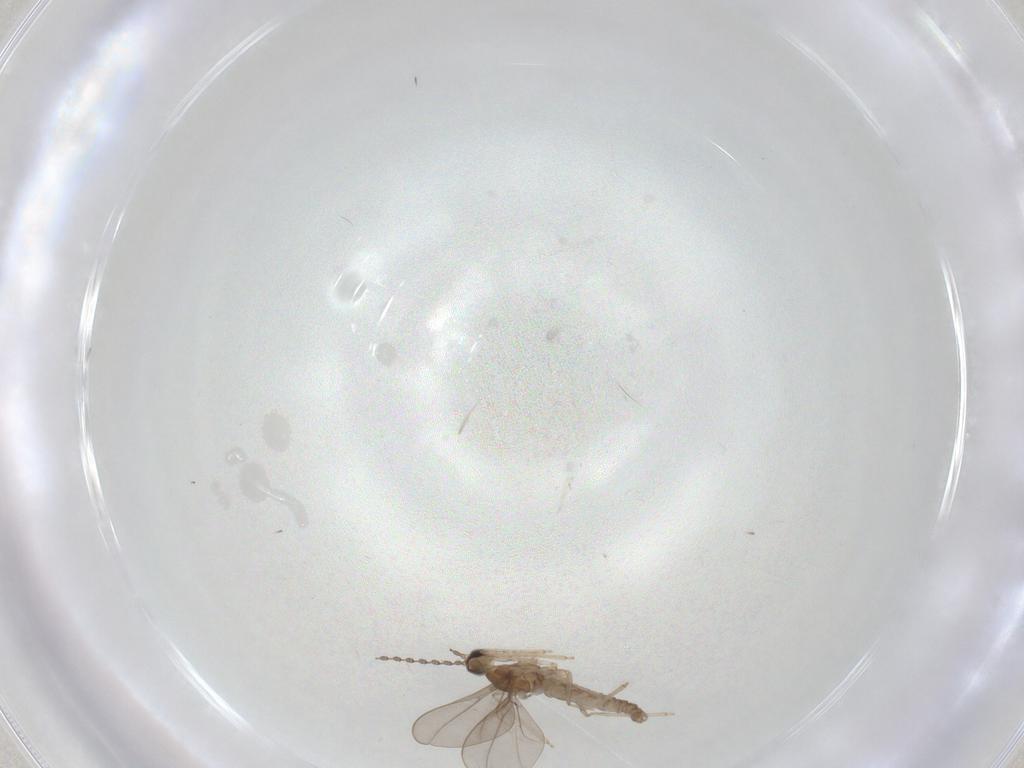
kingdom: Animalia
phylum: Arthropoda
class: Insecta
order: Diptera
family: Cecidomyiidae
